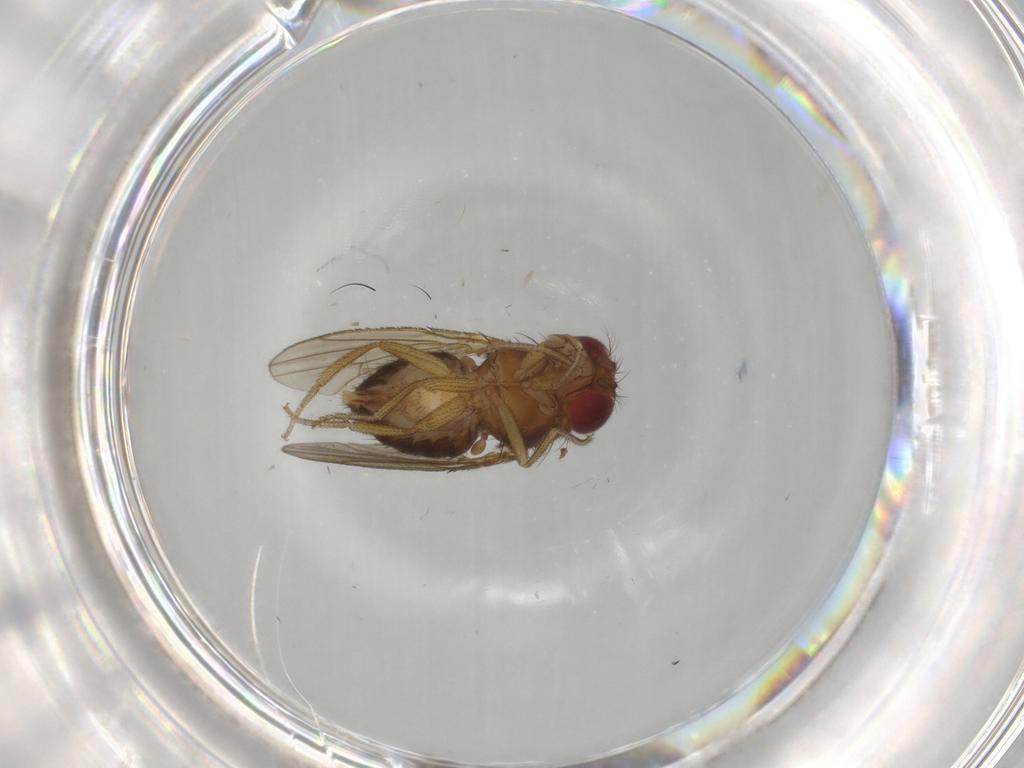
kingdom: Animalia
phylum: Arthropoda
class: Insecta
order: Diptera
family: Drosophilidae
